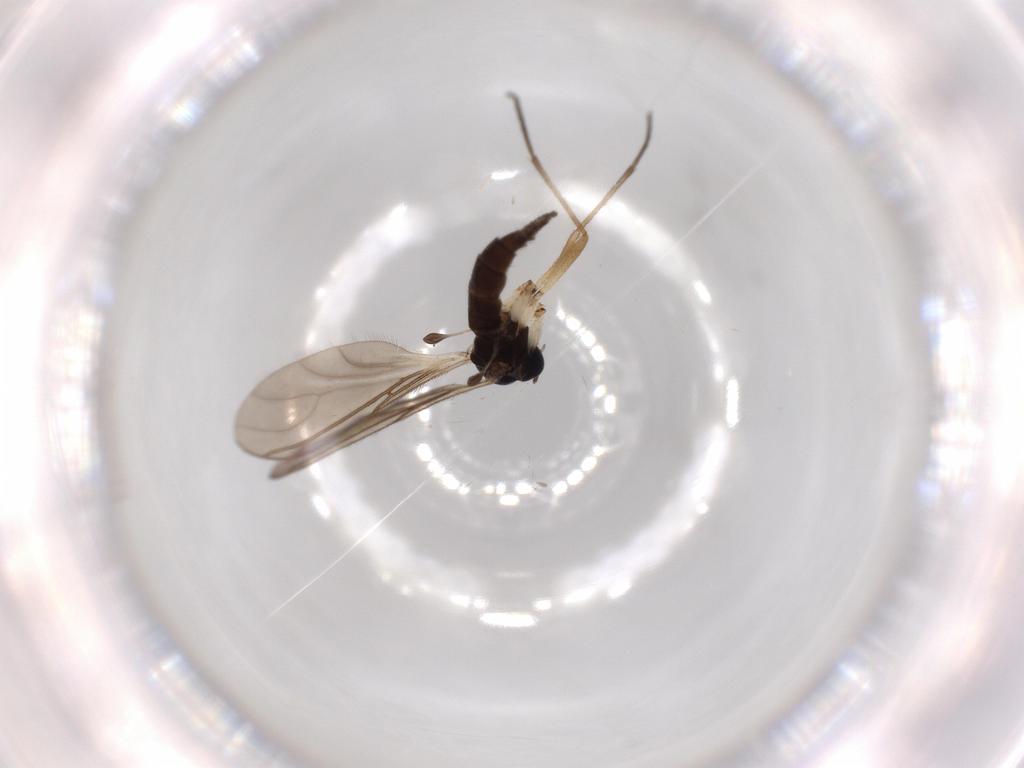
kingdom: Animalia
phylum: Arthropoda
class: Insecta
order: Diptera
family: Sciaridae
